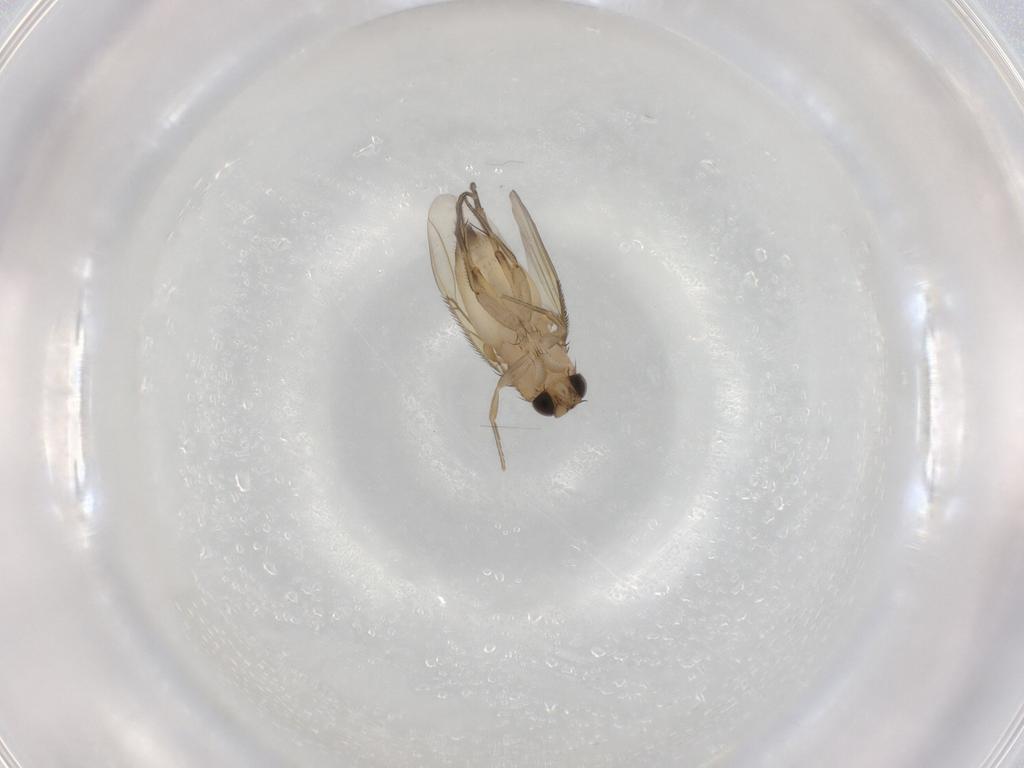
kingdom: Animalia
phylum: Arthropoda
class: Insecta
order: Diptera
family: Phoridae
